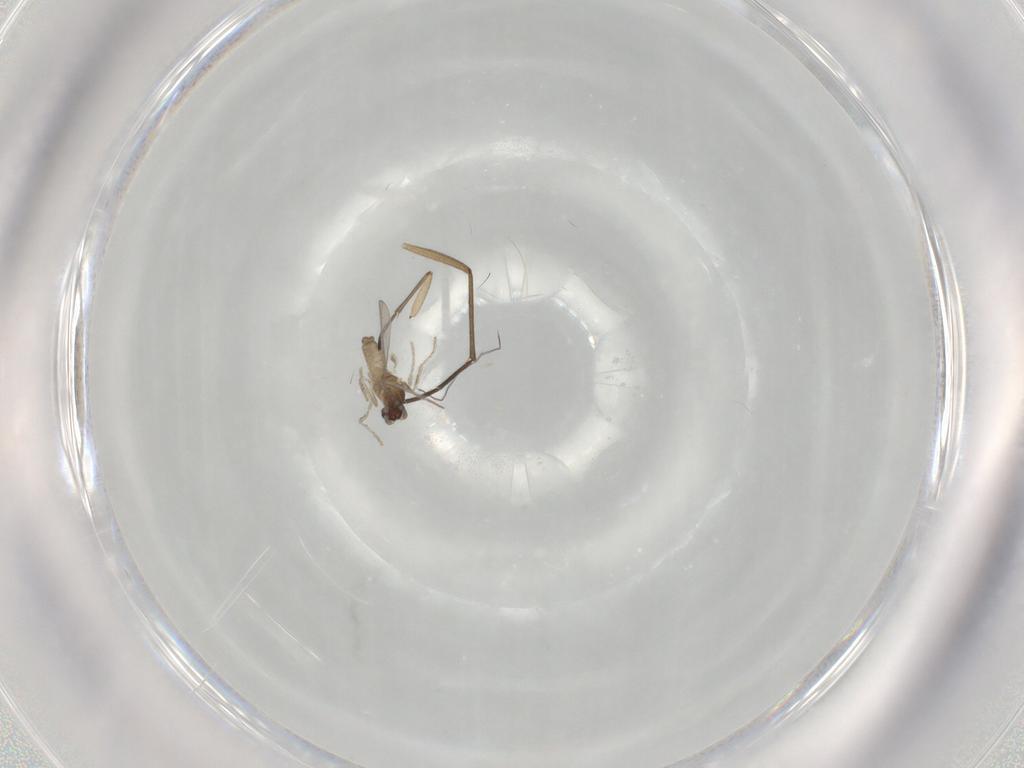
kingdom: Animalia
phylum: Arthropoda
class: Insecta
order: Diptera
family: Cecidomyiidae
